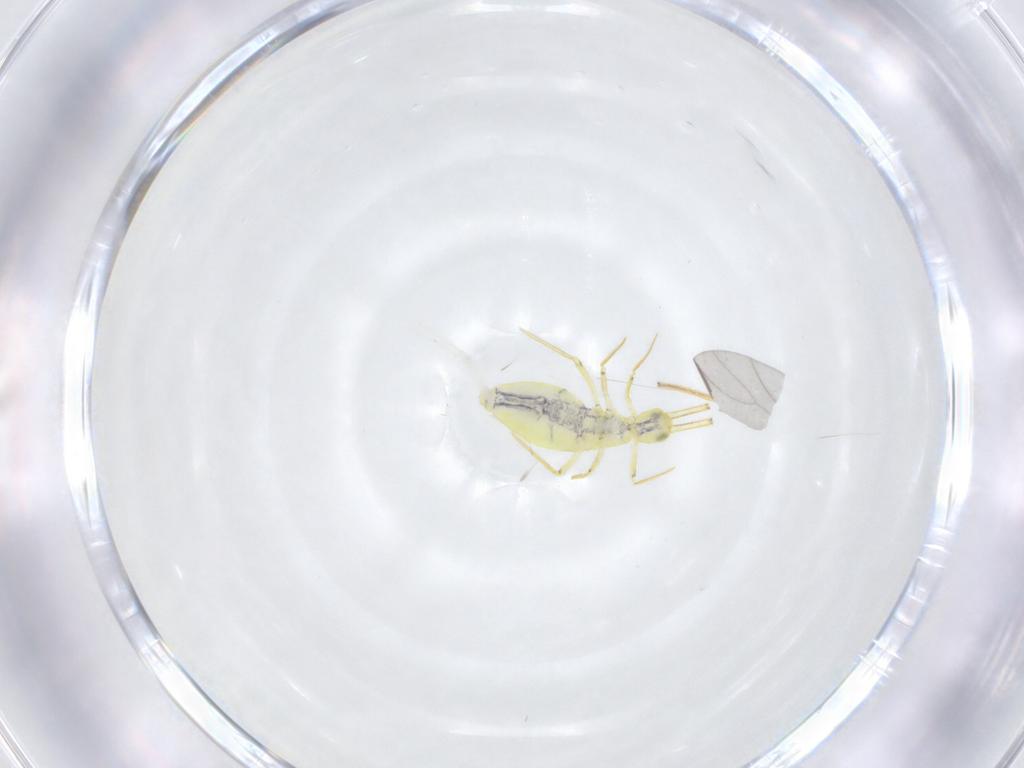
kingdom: Animalia
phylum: Arthropoda
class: Collembola
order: Entomobryomorpha
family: Entomobryidae
